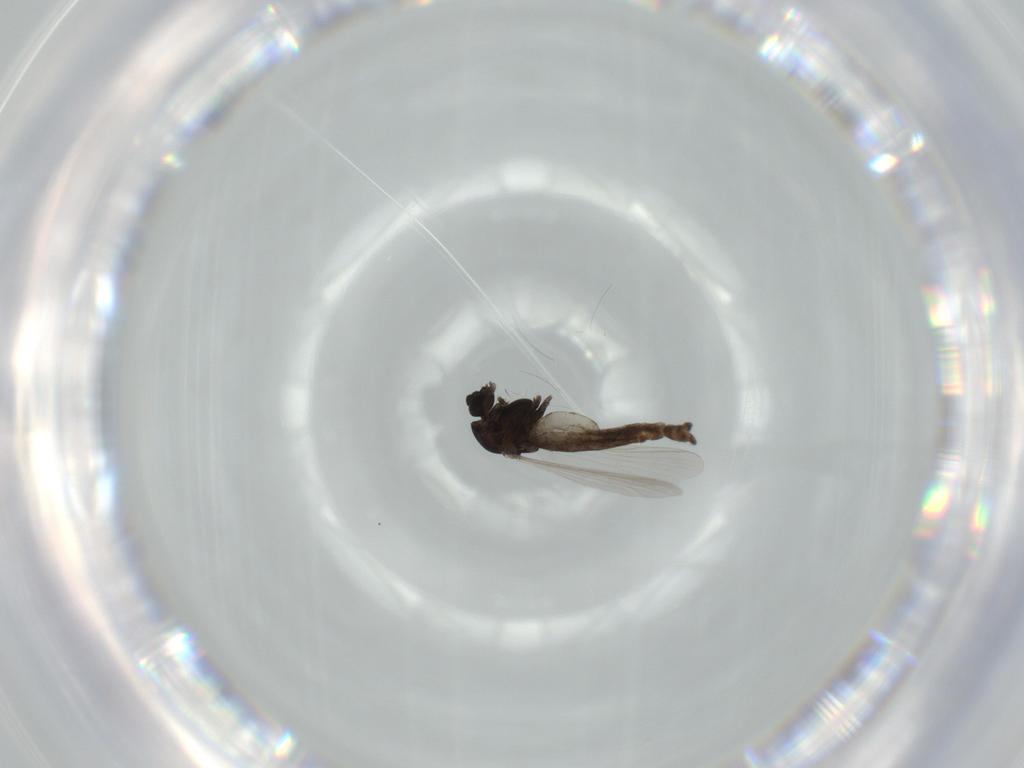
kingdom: Animalia
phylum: Arthropoda
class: Insecta
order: Diptera
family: Chironomidae
